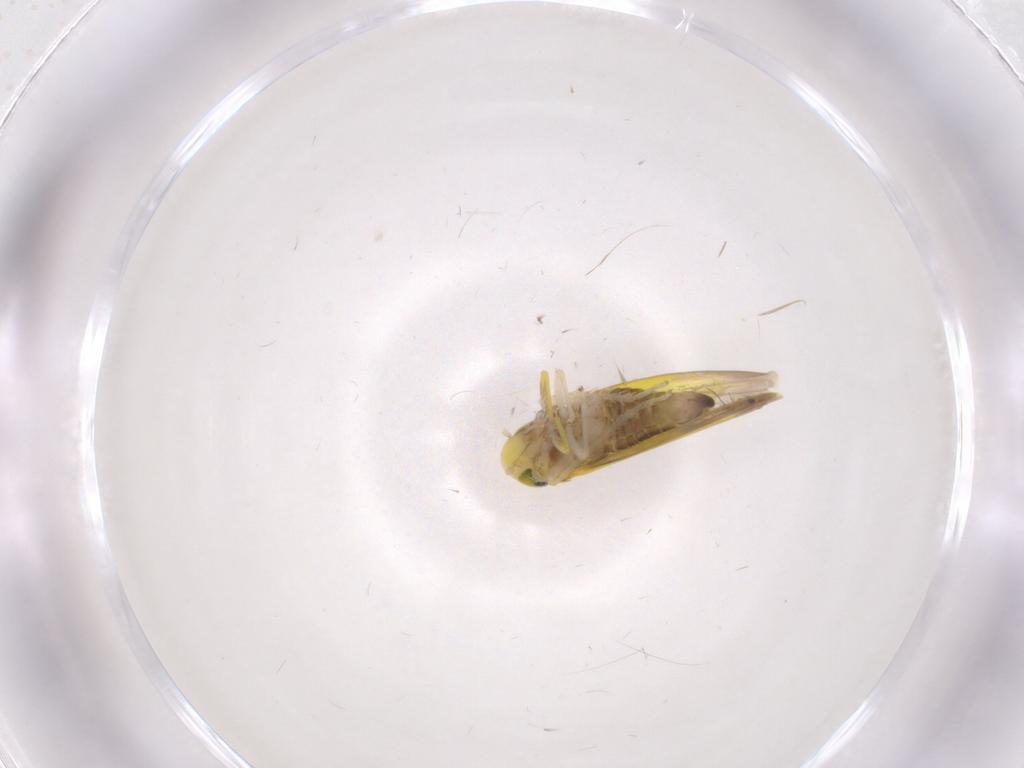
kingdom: Animalia
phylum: Arthropoda
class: Insecta
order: Hemiptera
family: Cicadellidae
